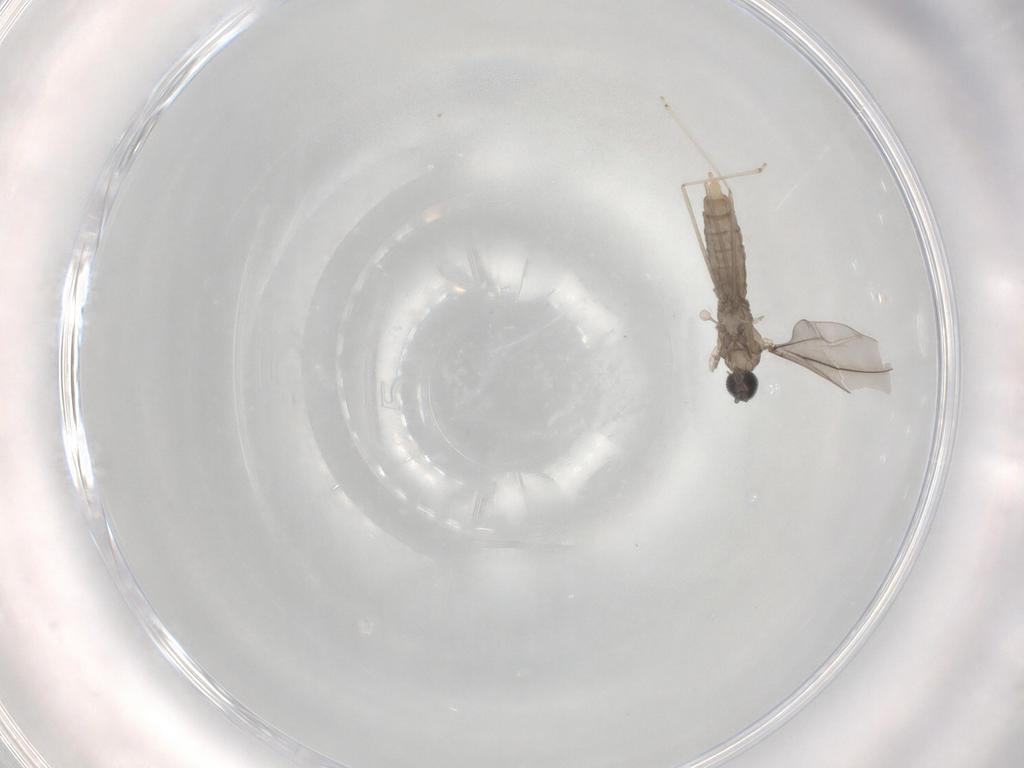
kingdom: Animalia
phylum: Arthropoda
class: Insecta
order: Diptera
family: Cecidomyiidae
